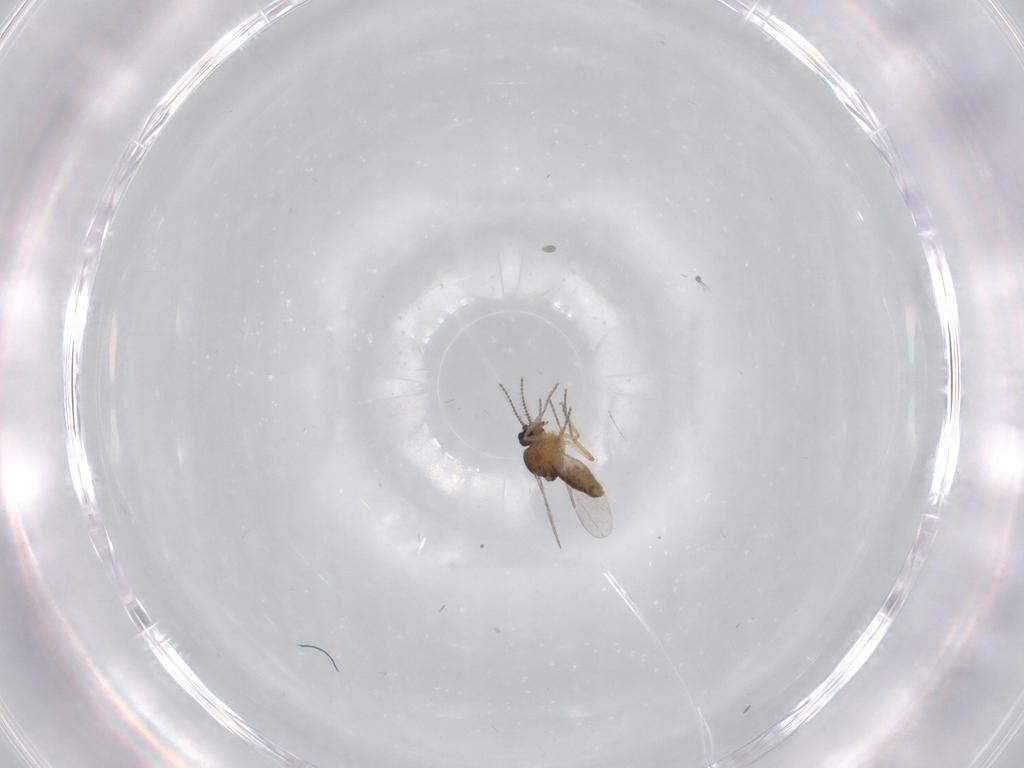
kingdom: Animalia
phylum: Arthropoda
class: Insecta
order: Diptera
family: Ceratopogonidae
